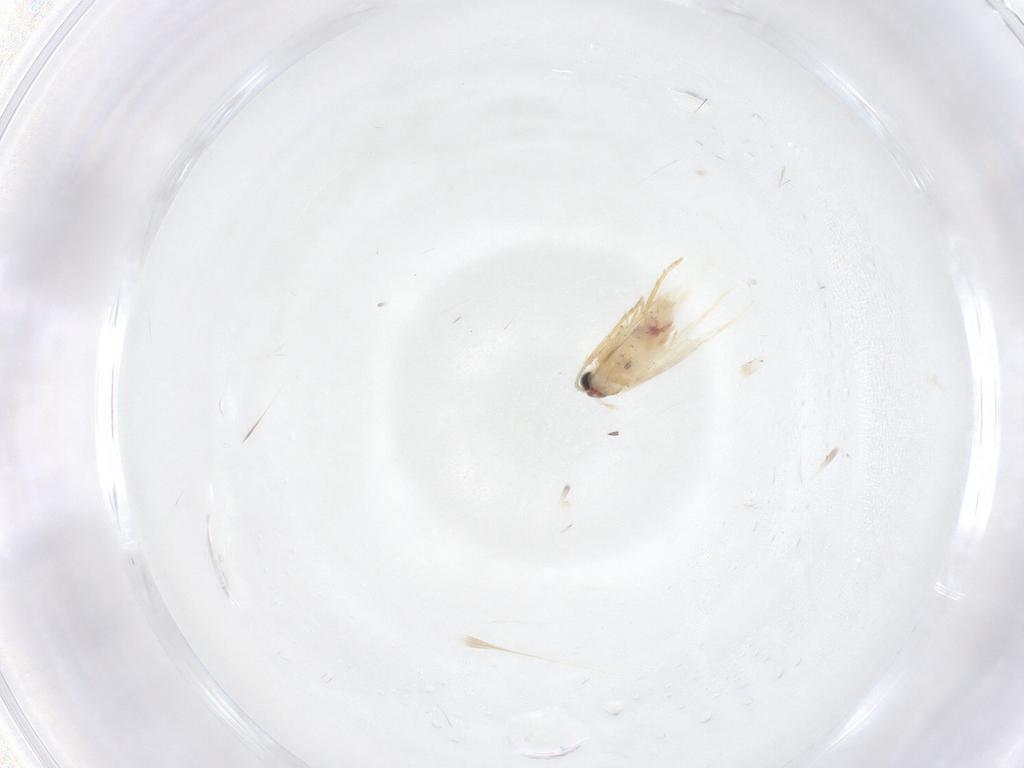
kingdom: Animalia
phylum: Arthropoda
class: Insecta
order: Lepidoptera
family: Nepticulidae
